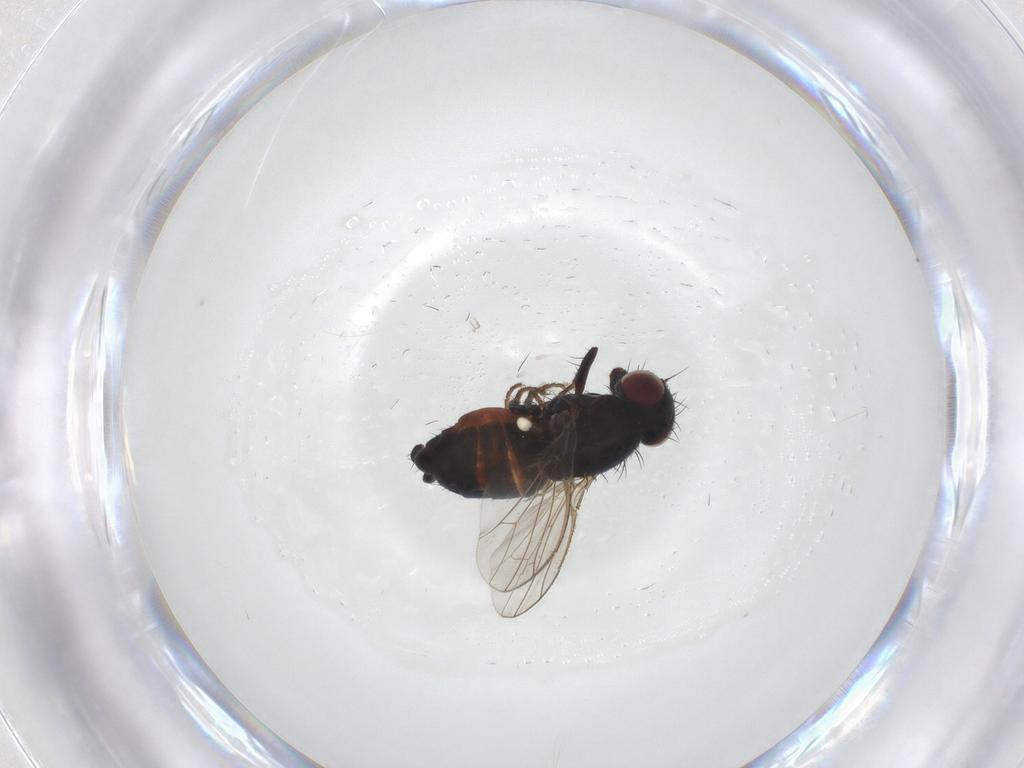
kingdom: Animalia
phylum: Arthropoda
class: Insecta
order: Diptera
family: Carnidae
